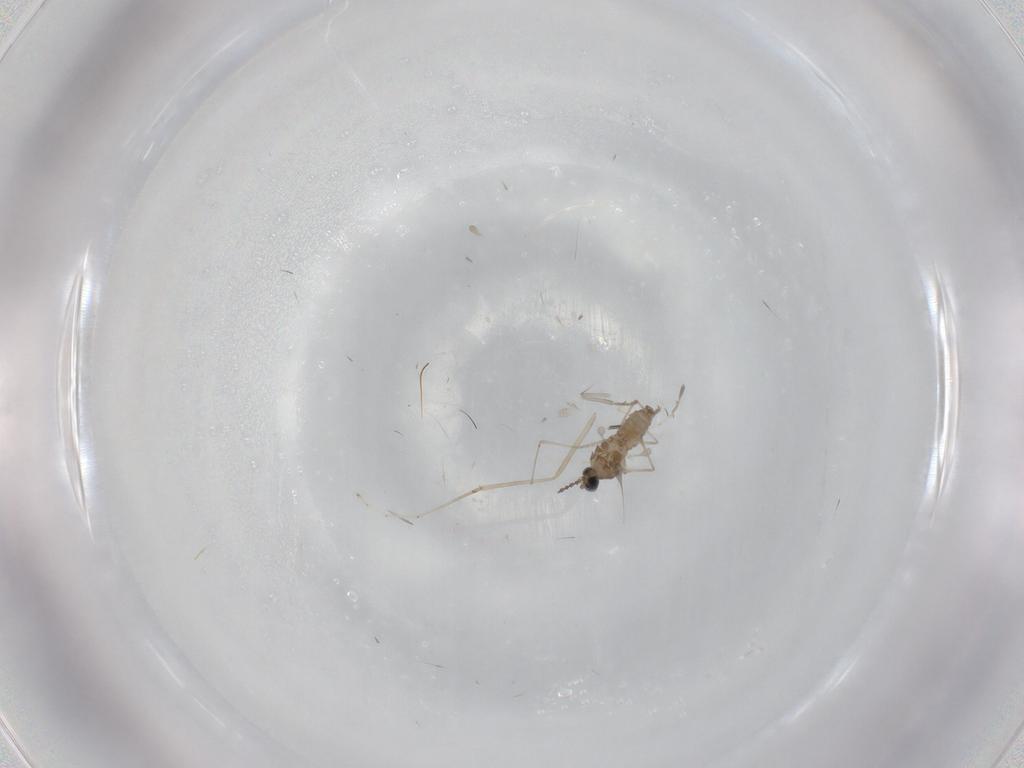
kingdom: Animalia
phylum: Arthropoda
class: Insecta
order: Diptera
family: Cecidomyiidae
